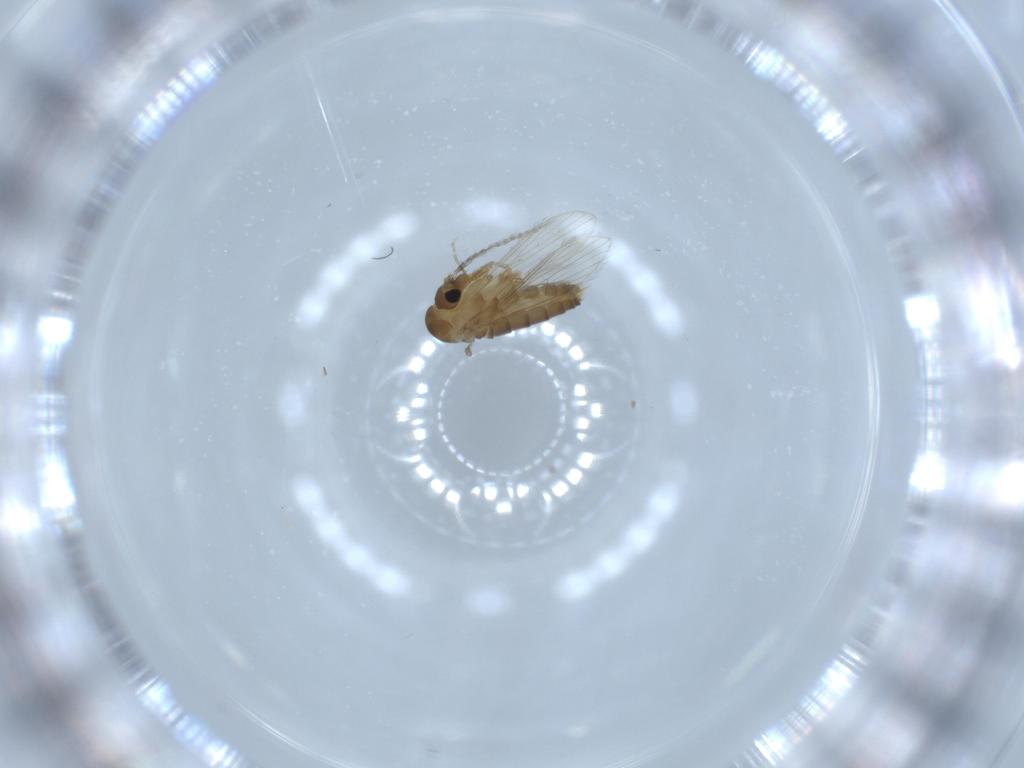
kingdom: Animalia
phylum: Arthropoda
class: Insecta
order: Diptera
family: Psychodidae
